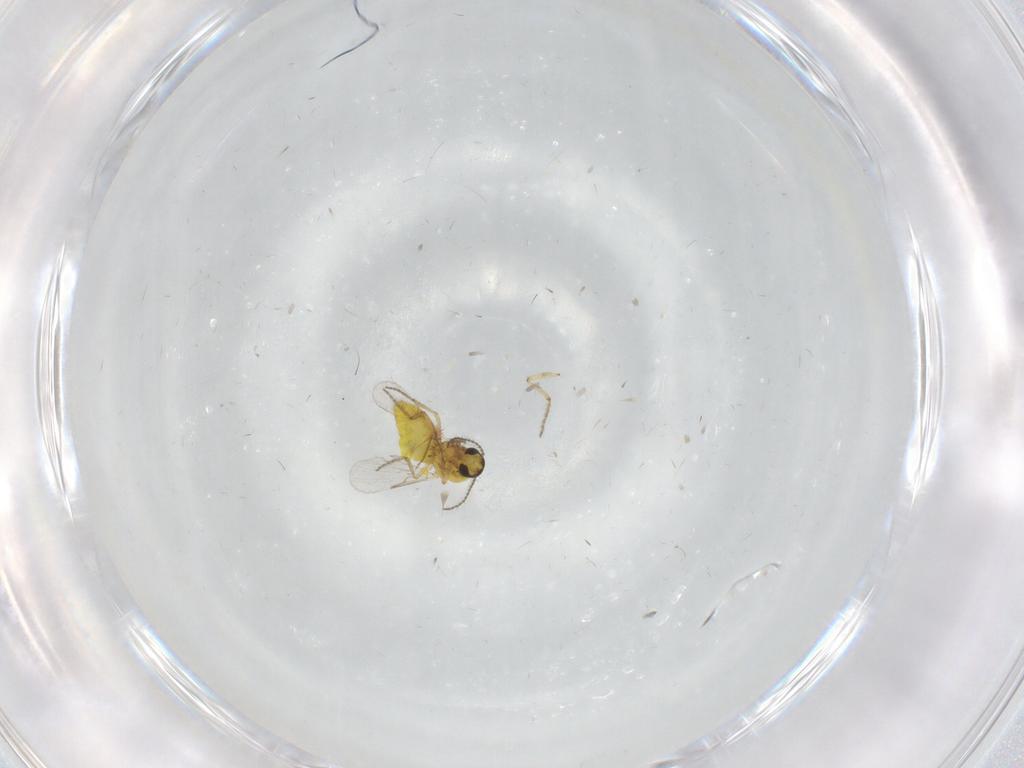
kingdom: Animalia
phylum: Arthropoda
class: Insecta
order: Diptera
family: Ceratopogonidae
